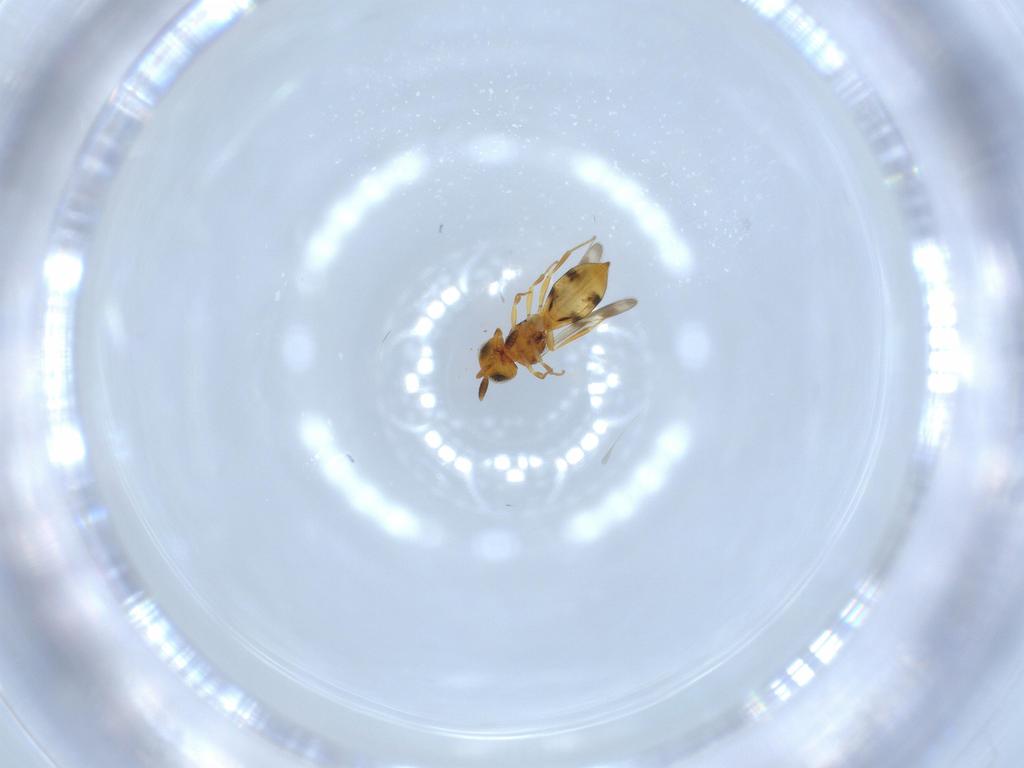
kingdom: Animalia
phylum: Arthropoda
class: Insecta
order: Hymenoptera
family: Scelionidae
